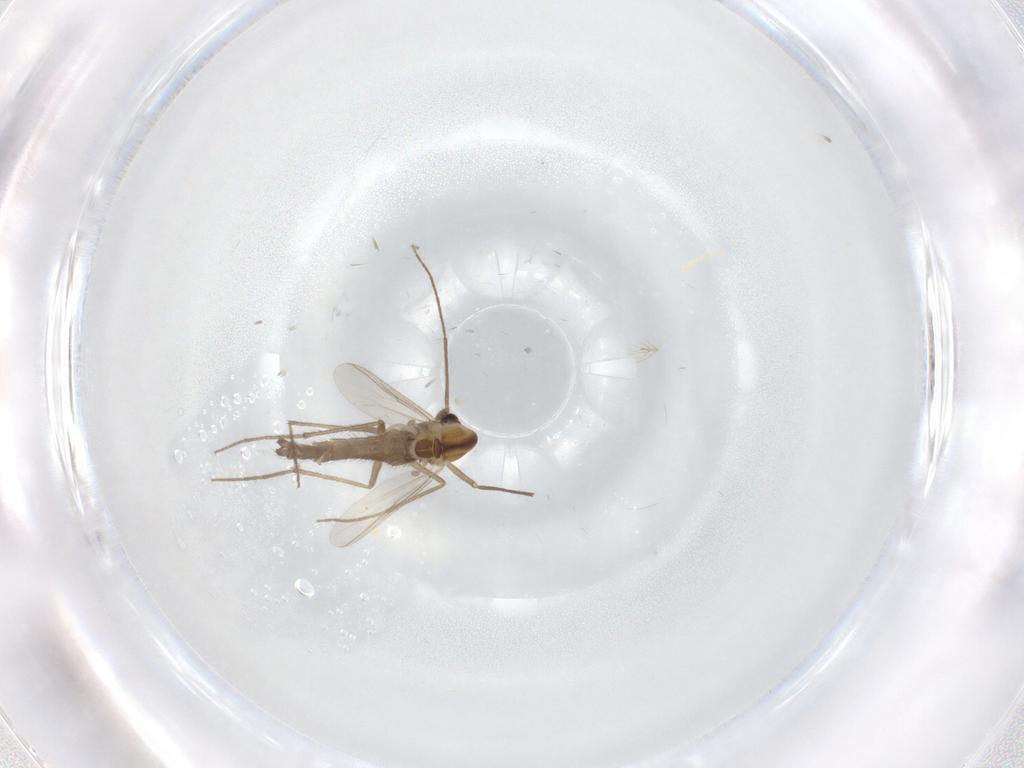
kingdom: Animalia
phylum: Arthropoda
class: Insecta
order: Diptera
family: Chironomidae
